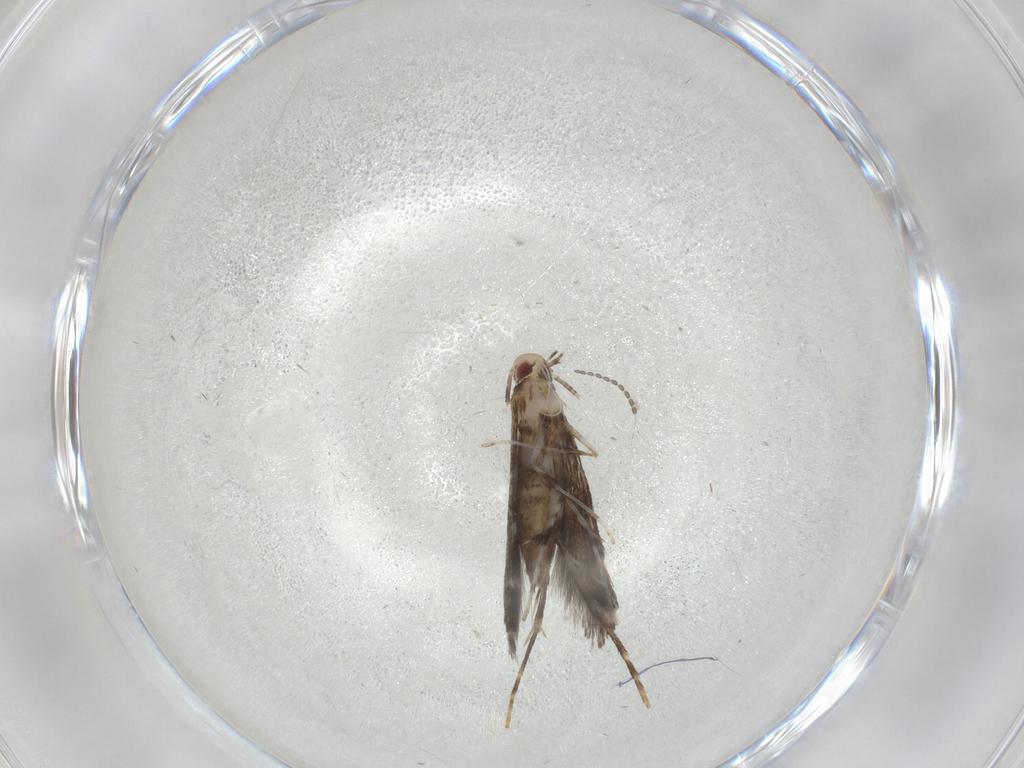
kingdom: Animalia
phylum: Arthropoda
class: Insecta
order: Lepidoptera
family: Gracillariidae
